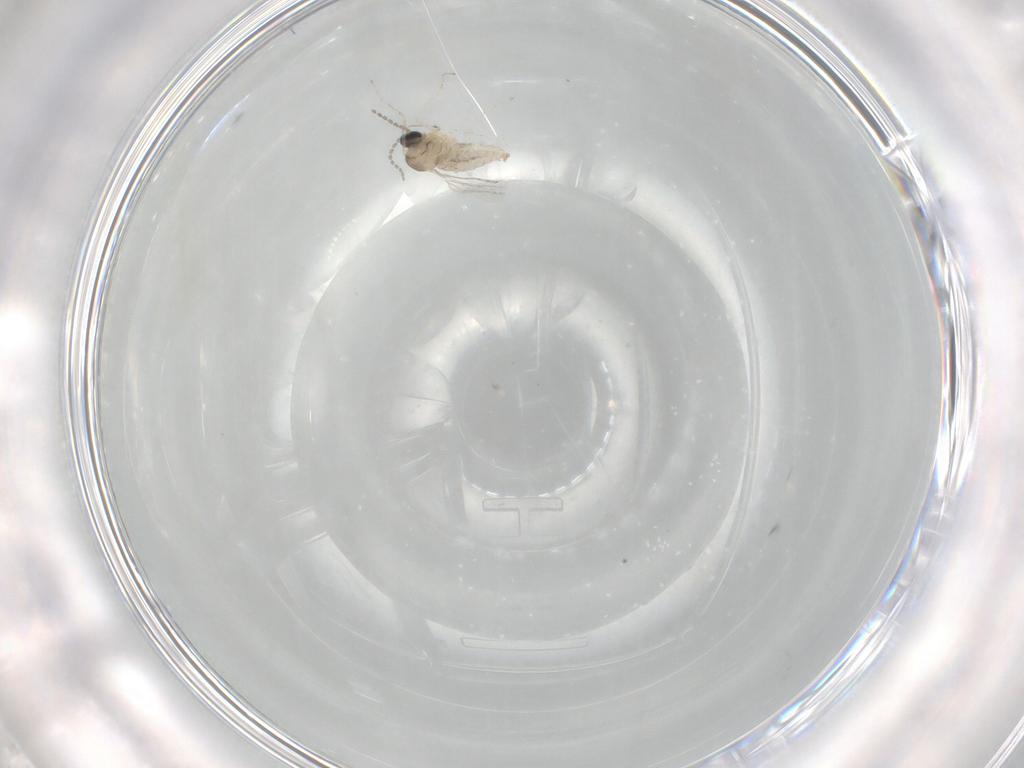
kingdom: Animalia
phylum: Arthropoda
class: Insecta
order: Diptera
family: Cecidomyiidae
